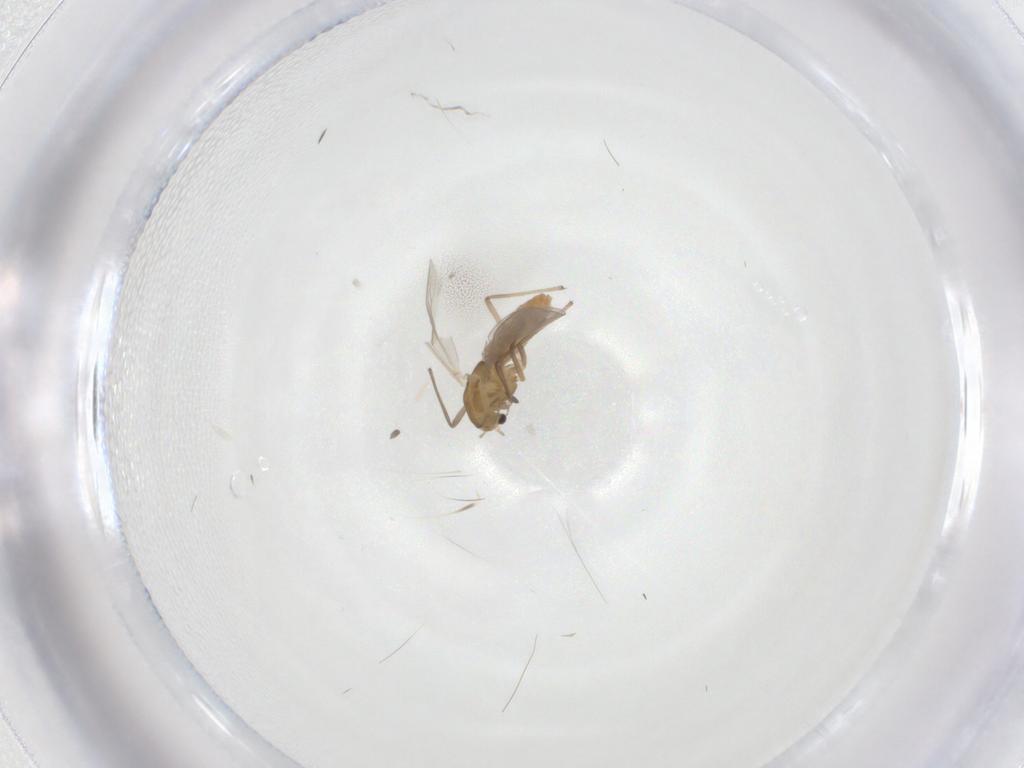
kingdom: Animalia
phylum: Arthropoda
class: Insecta
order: Diptera
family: Chironomidae
